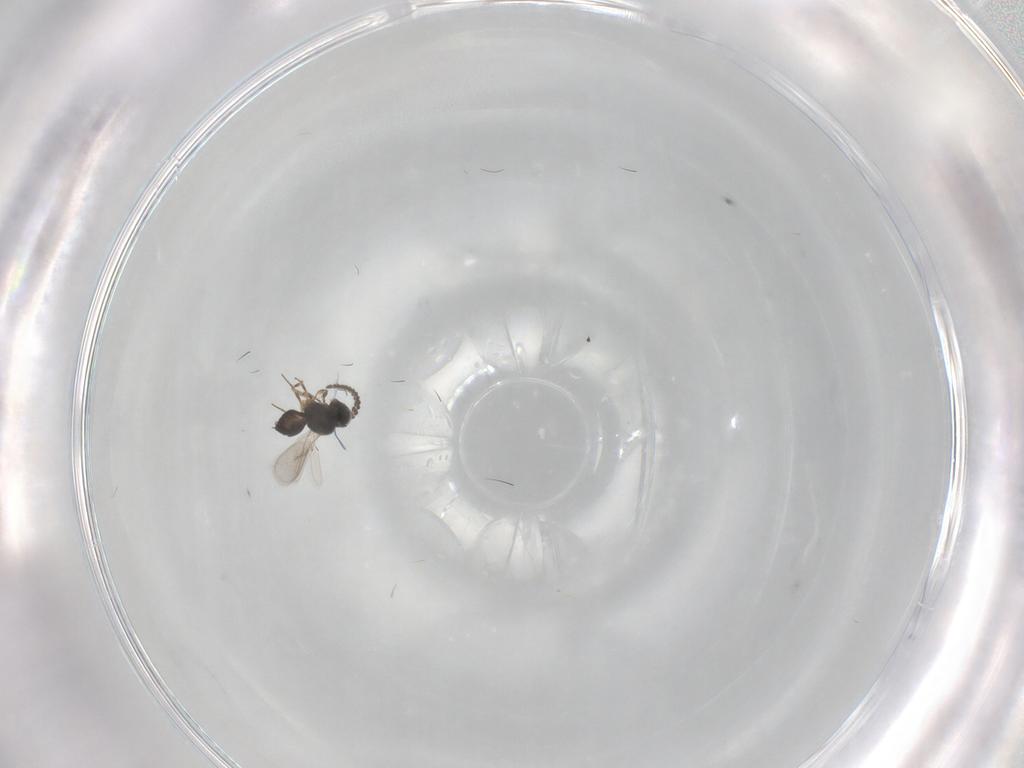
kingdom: Animalia
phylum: Arthropoda
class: Insecta
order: Hymenoptera
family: Scelionidae
